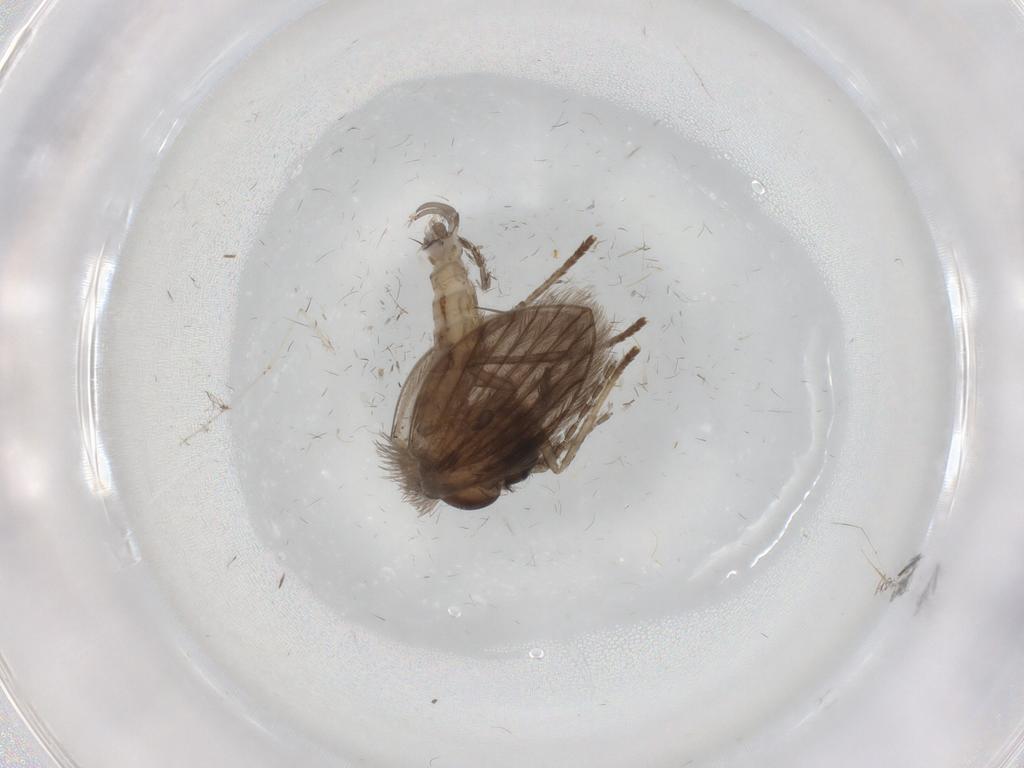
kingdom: Animalia
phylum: Arthropoda
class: Insecta
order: Diptera
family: Psychodidae
